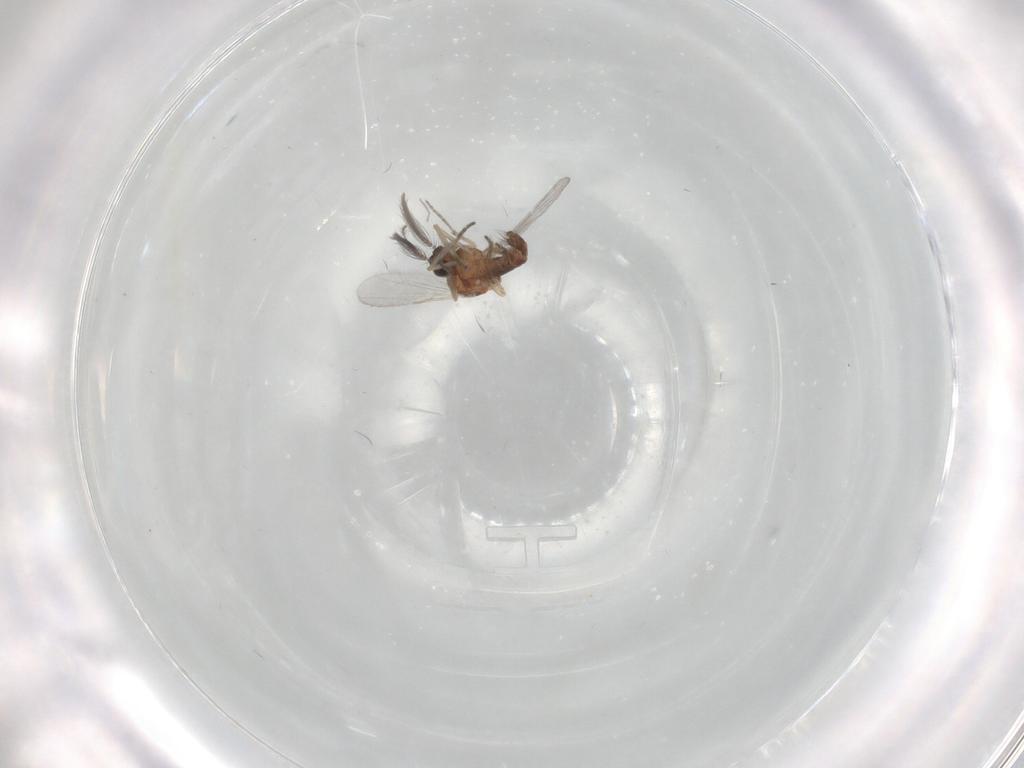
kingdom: Animalia
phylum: Arthropoda
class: Insecta
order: Diptera
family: Ceratopogonidae
